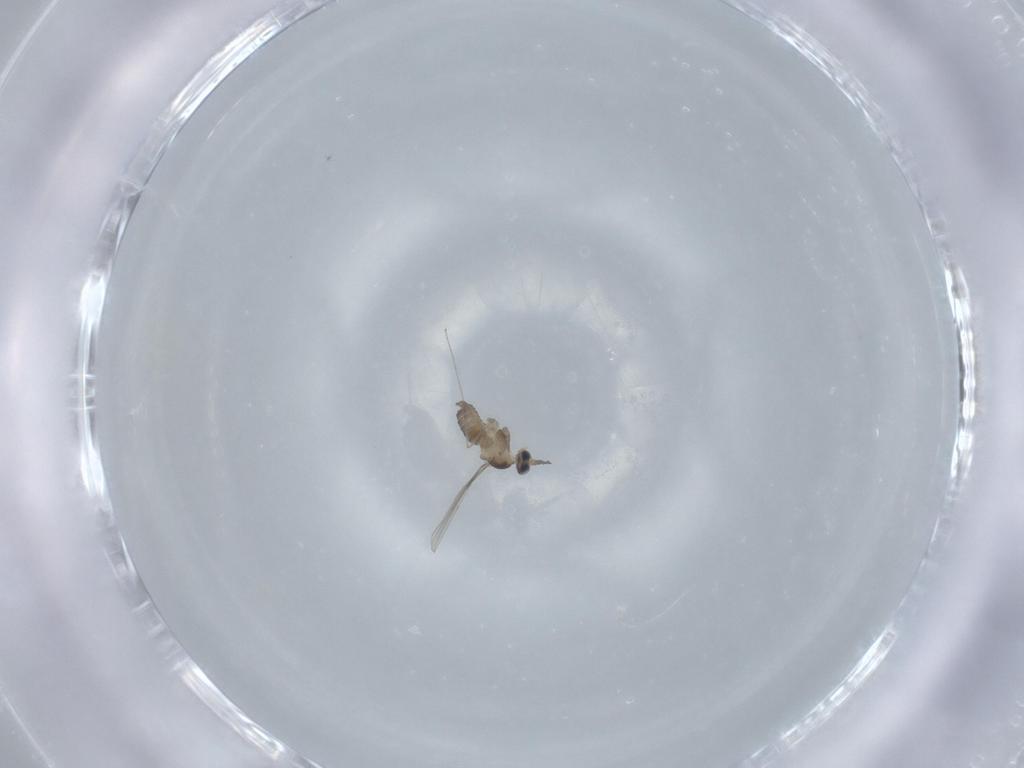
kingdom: Animalia
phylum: Arthropoda
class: Insecta
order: Diptera
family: Cecidomyiidae
